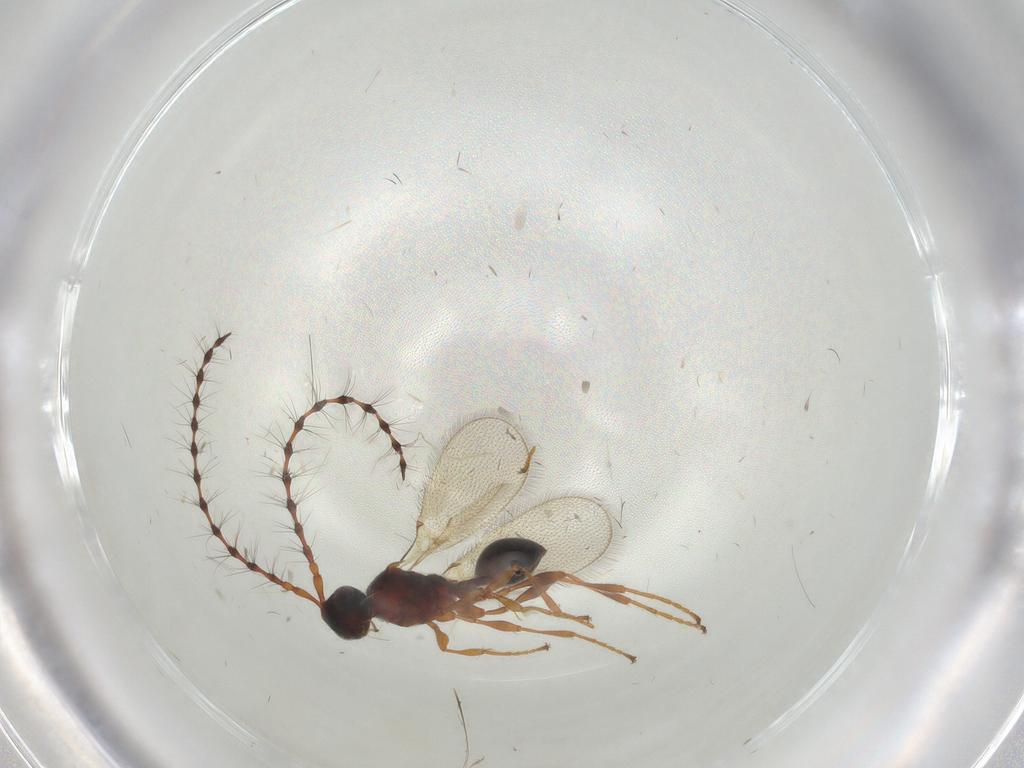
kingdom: Animalia
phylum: Arthropoda
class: Insecta
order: Hymenoptera
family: Diapriidae
